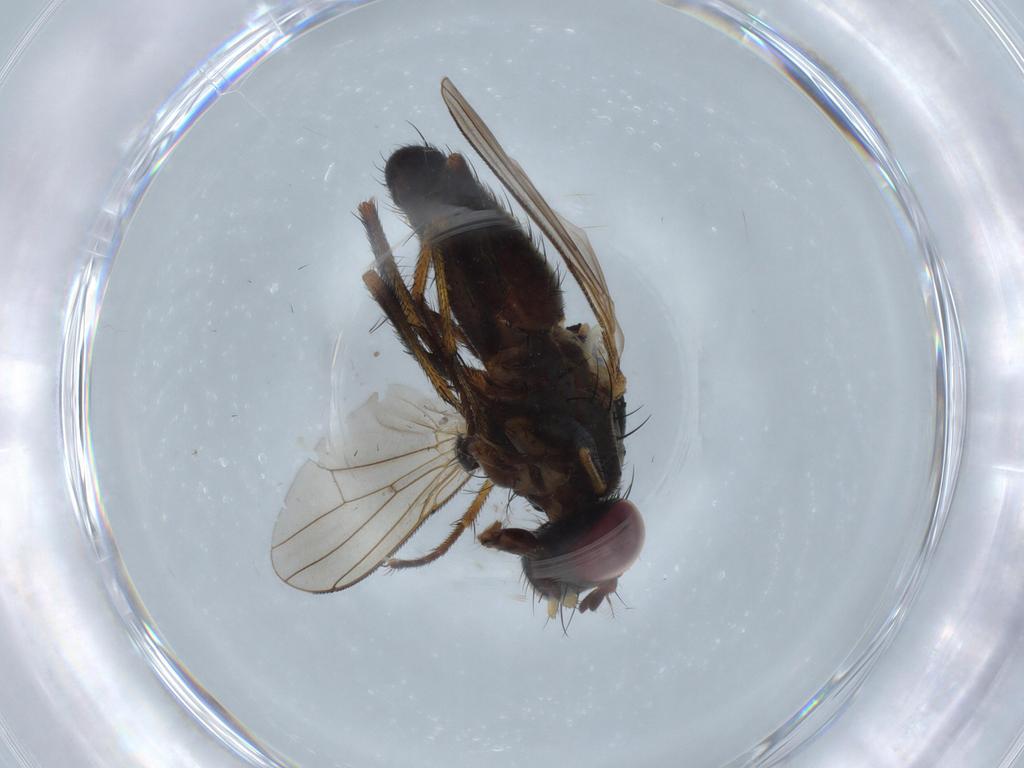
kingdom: Animalia
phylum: Arthropoda
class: Insecta
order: Diptera
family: Muscidae
